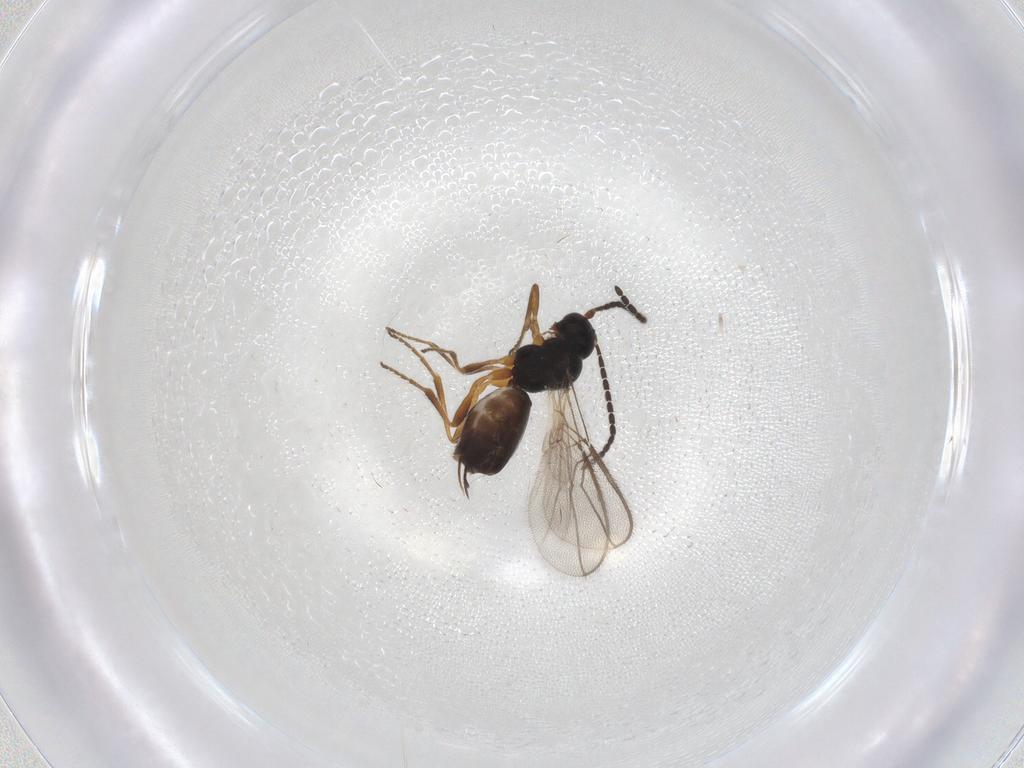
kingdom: Animalia
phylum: Arthropoda
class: Insecta
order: Hymenoptera
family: Braconidae
